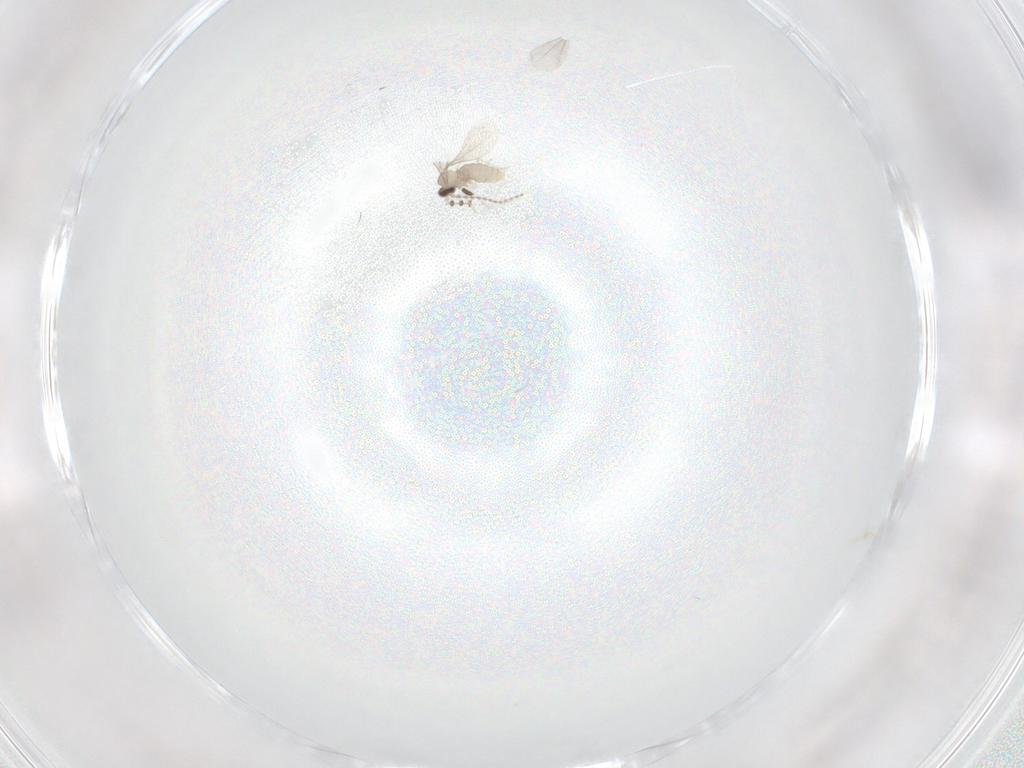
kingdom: Animalia
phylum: Arthropoda
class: Insecta
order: Diptera
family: Cecidomyiidae
